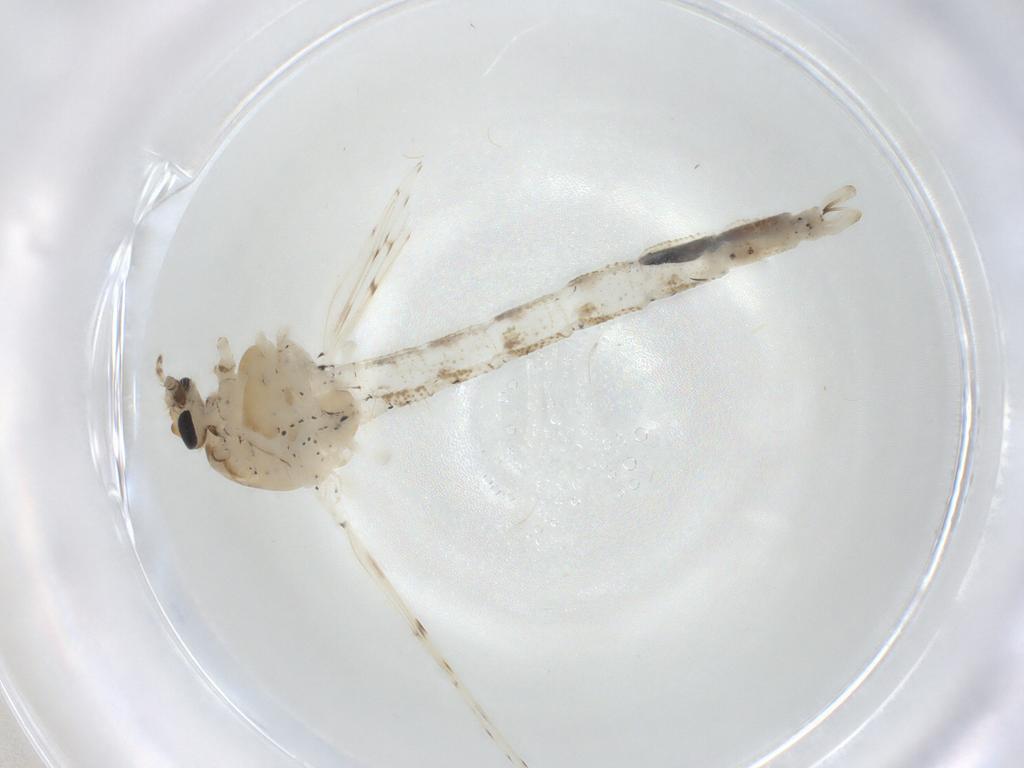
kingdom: Animalia
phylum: Arthropoda
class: Insecta
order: Diptera
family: Chaoboridae
